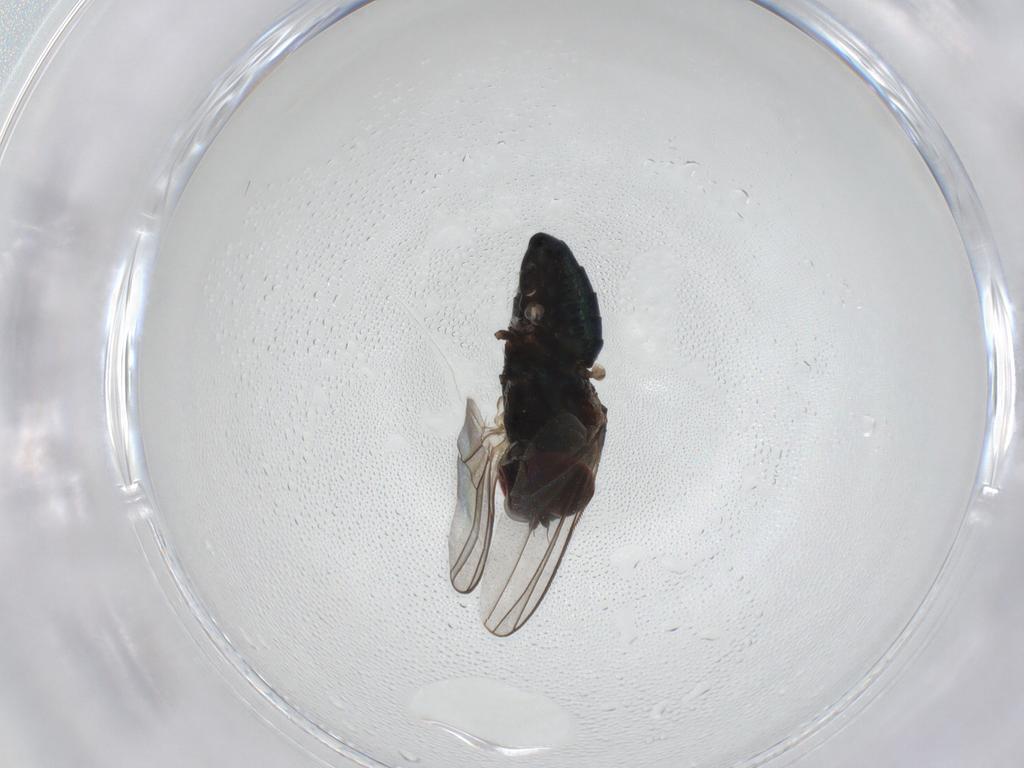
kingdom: Animalia
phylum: Arthropoda
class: Insecta
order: Diptera
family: Dolichopodidae
